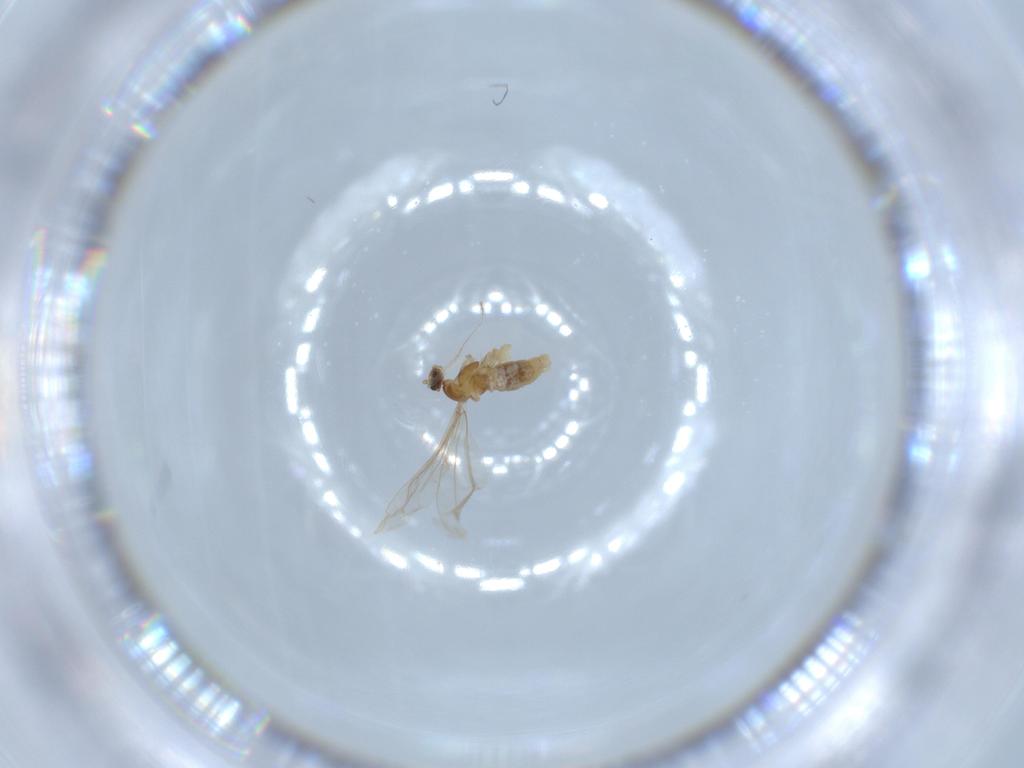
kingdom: Animalia
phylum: Arthropoda
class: Insecta
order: Diptera
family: Cecidomyiidae
